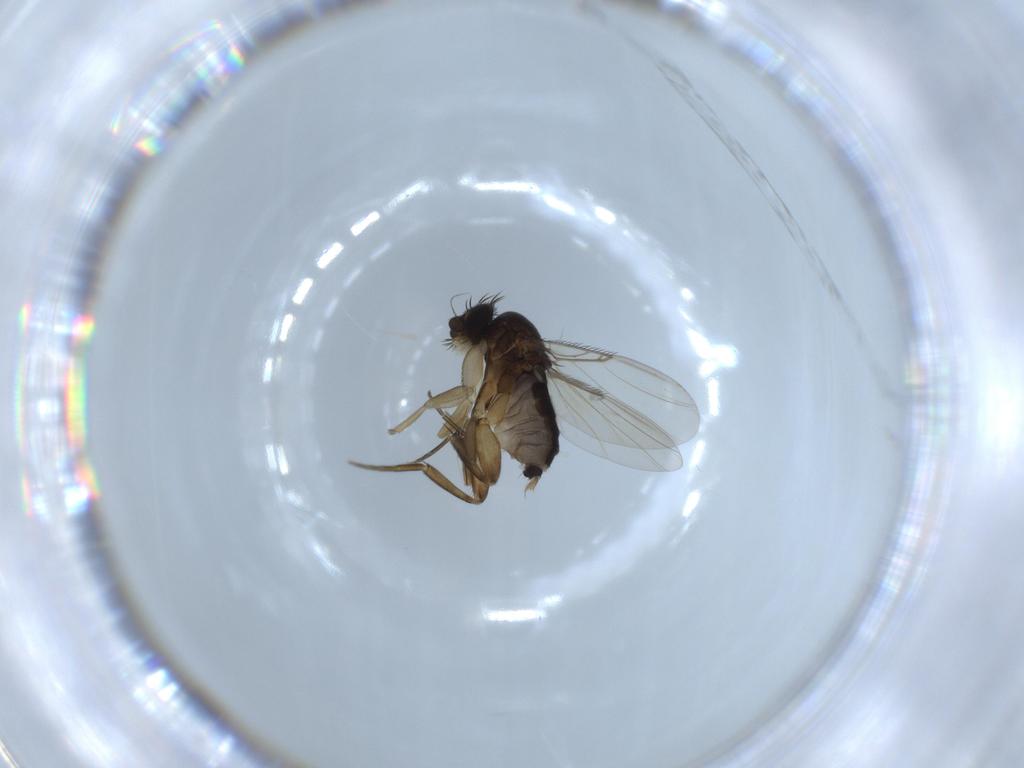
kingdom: Animalia
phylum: Arthropoda
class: Insecta
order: Diptera
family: Phoridae
